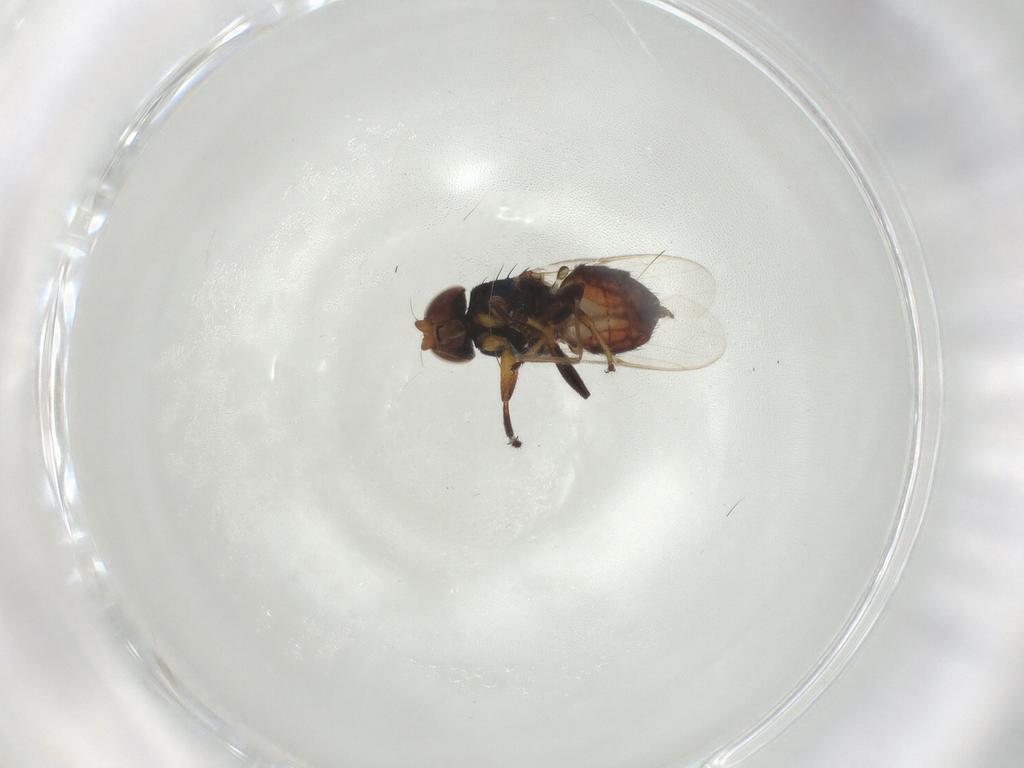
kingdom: Animalia
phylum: Arthropoda
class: Insecta
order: Diptera
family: Chloropidae
